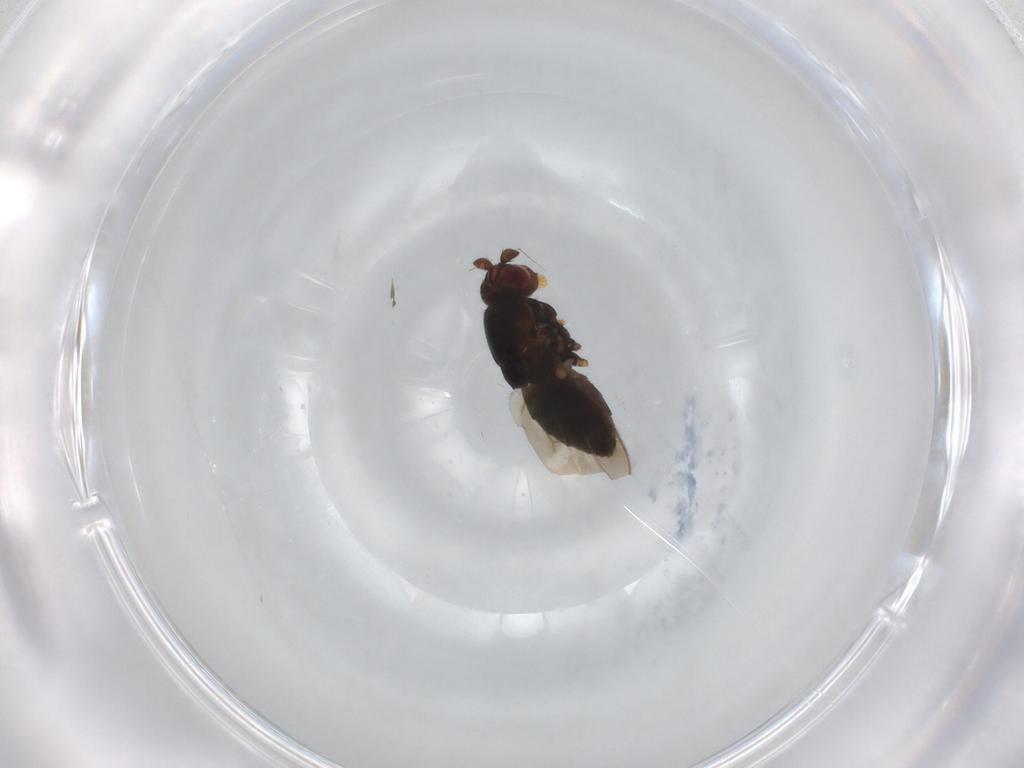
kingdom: Animalia
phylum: Arthropoda
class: Insecta
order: Diptera
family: Sphaeroceridae
